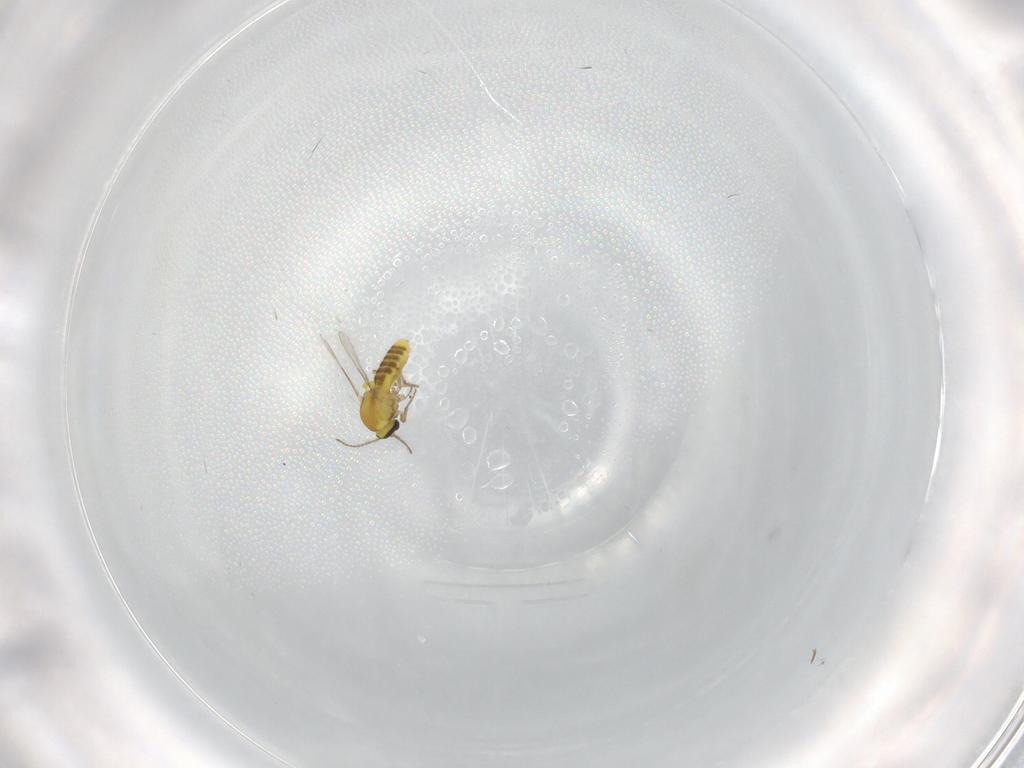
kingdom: Animalia
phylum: Arthropoda
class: Insecta
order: Diptera
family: Ceratopogonidae
